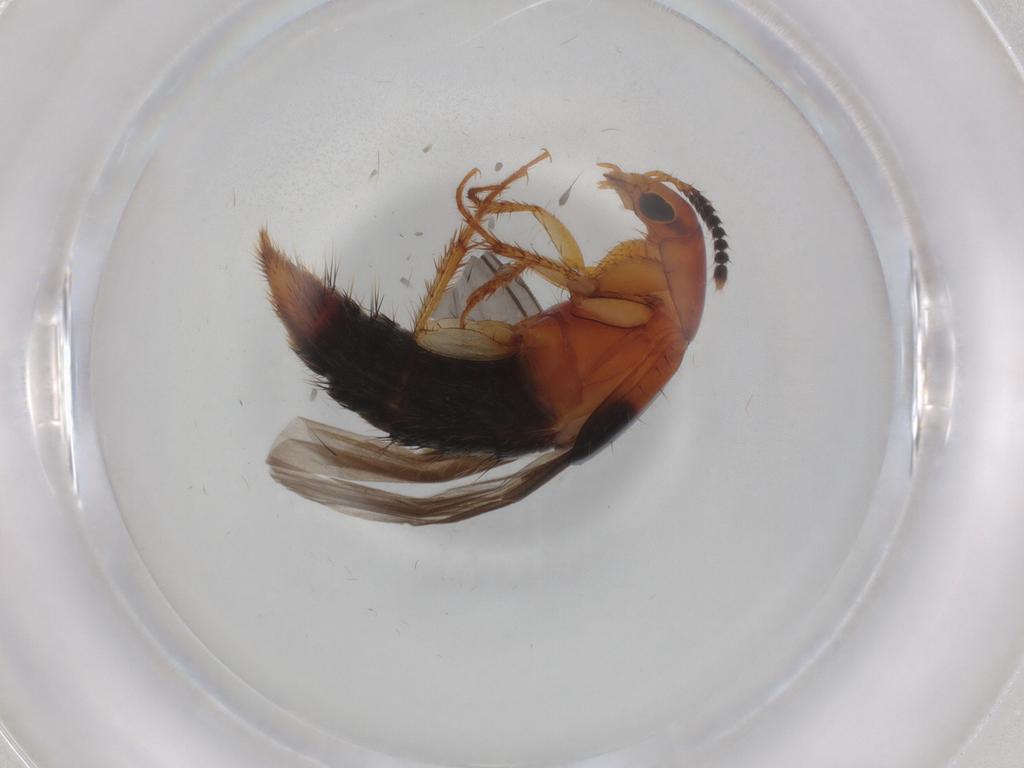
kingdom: Animalia
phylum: Arthropoda
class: Insecta
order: Coleoptera
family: Staphylinidae
